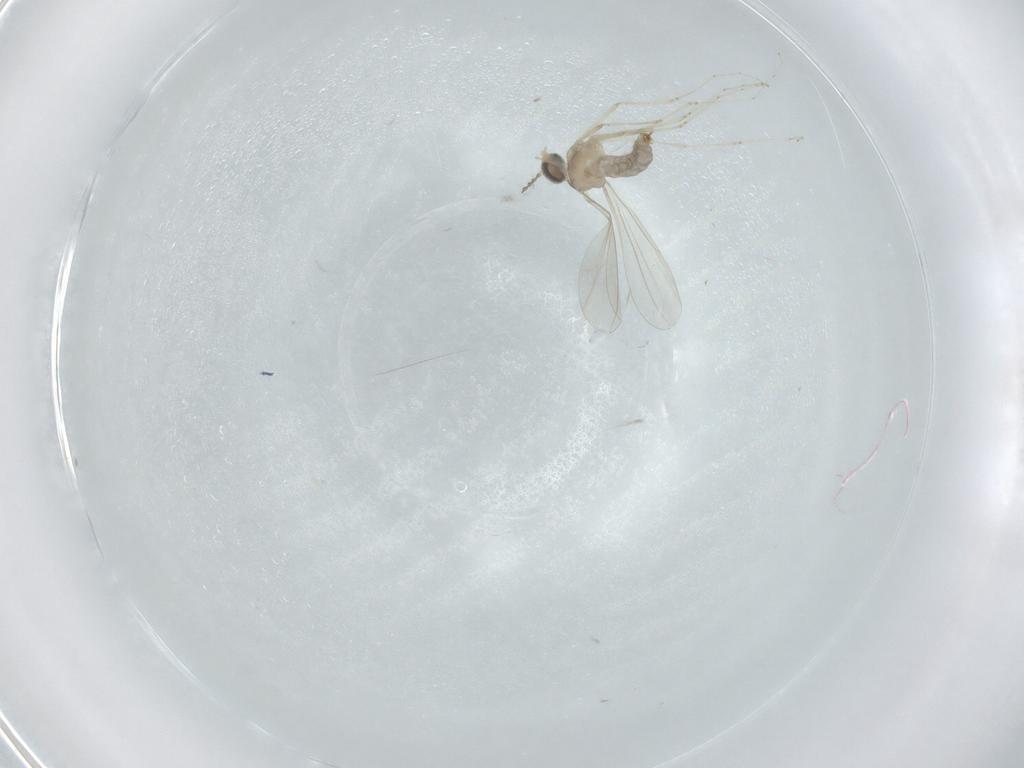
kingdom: Animalia
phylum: Arthropoda
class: Insecta
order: Diptera
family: Cecidomyiidae
